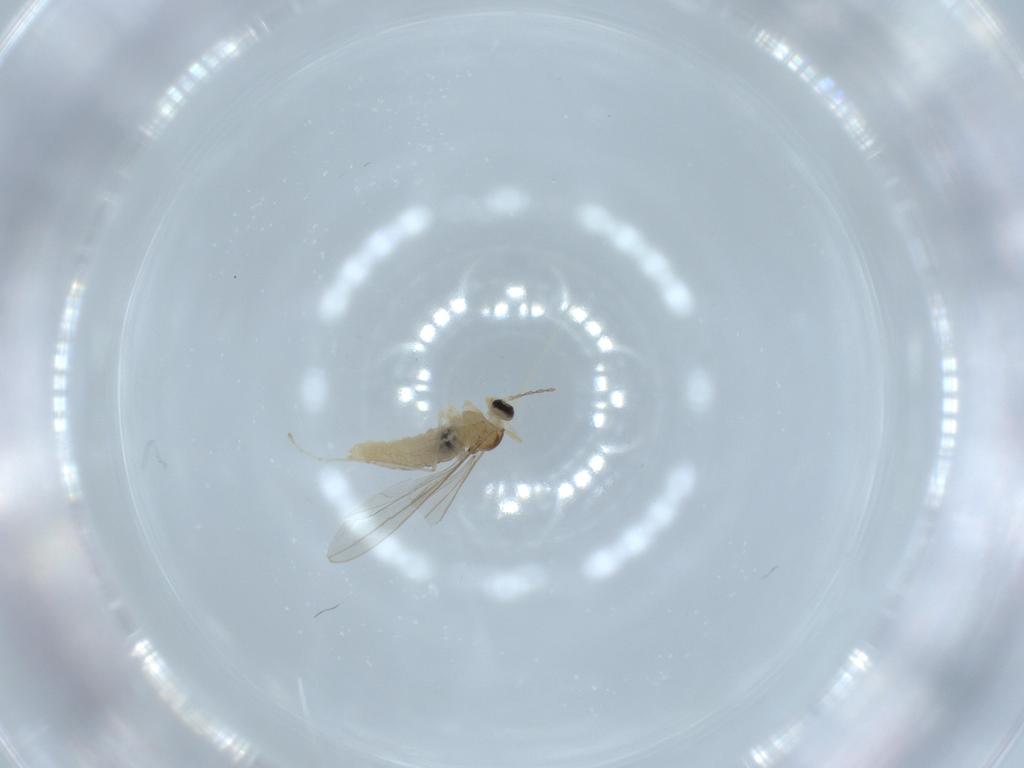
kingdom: Animalia
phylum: Arthropoda
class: Insecta
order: Diptera
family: Cecidomyiidae
